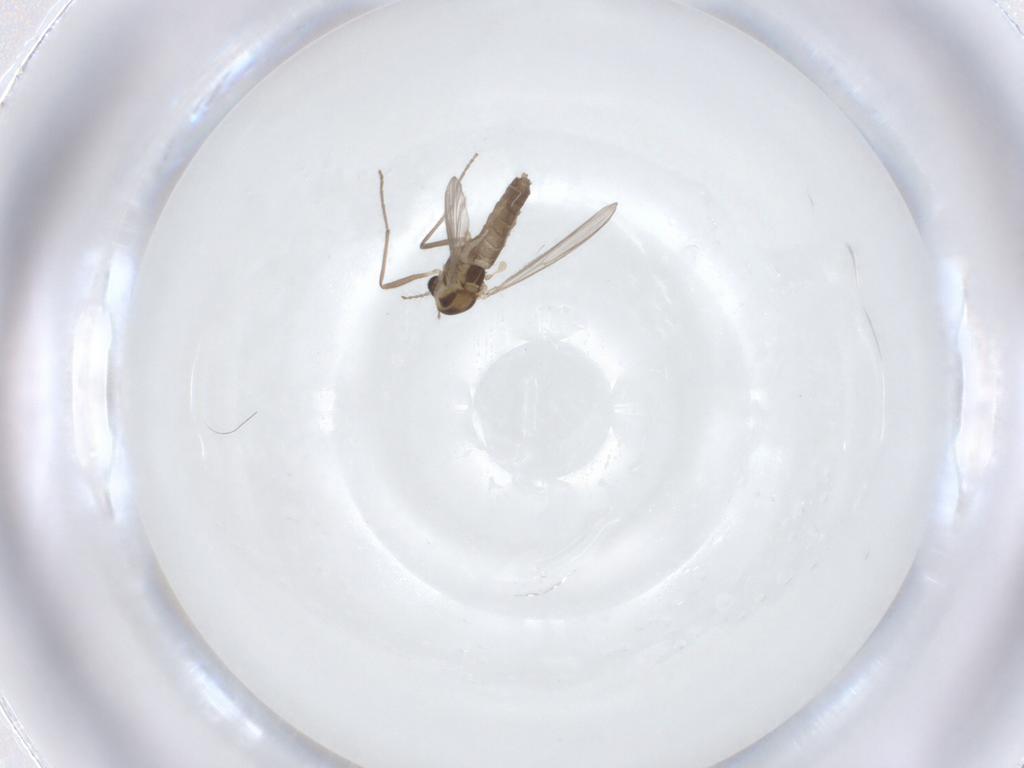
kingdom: Animalia
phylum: Arthropoda
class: Insecta
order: Diptera
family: Chironomidae
